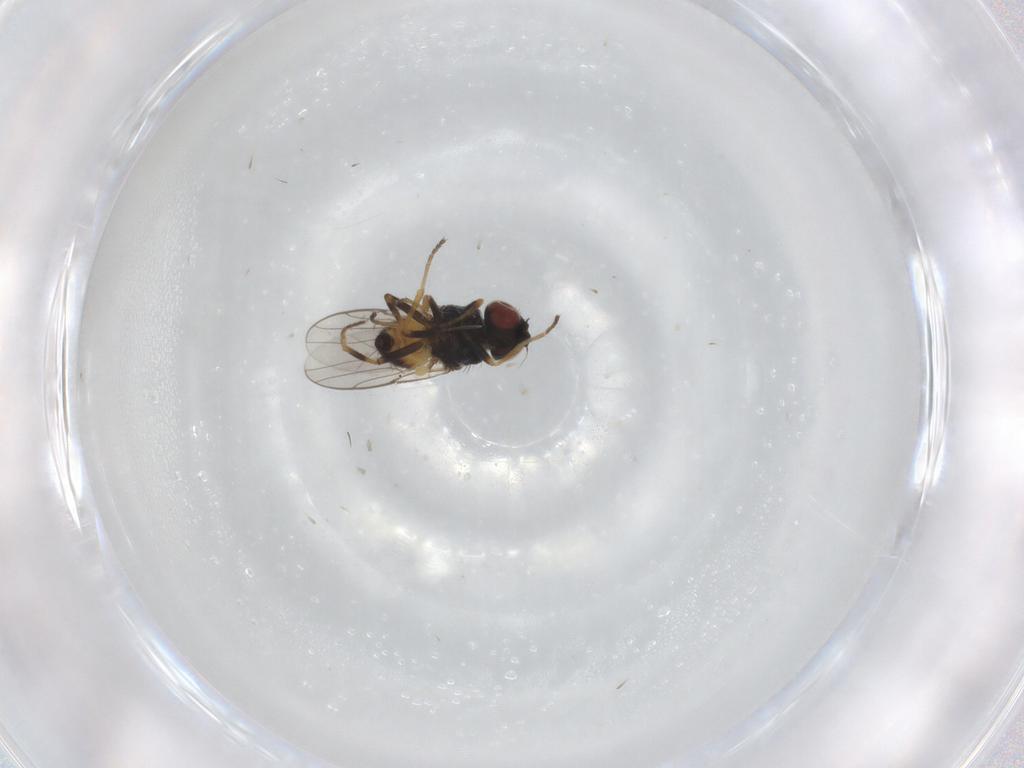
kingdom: Animalia
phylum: Arthropoda
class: Insecta
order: Diptera
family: Chloropidae
